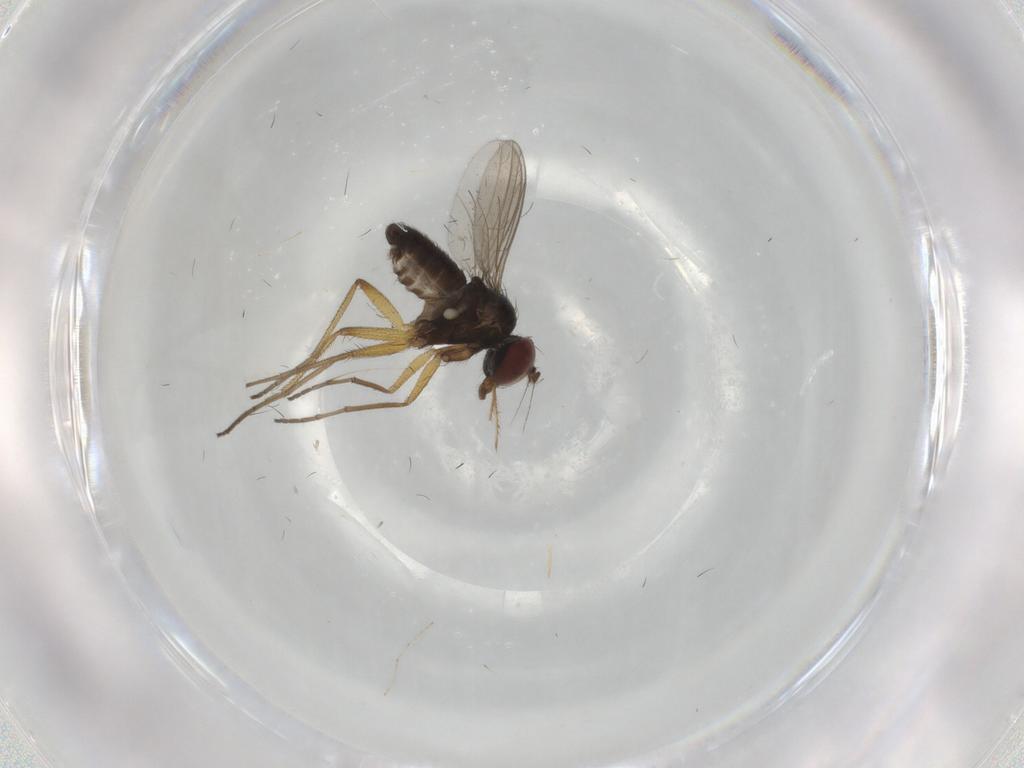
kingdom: Animalia
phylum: Arthropoda
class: Insecta
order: Diptera
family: Dolichopodidae
